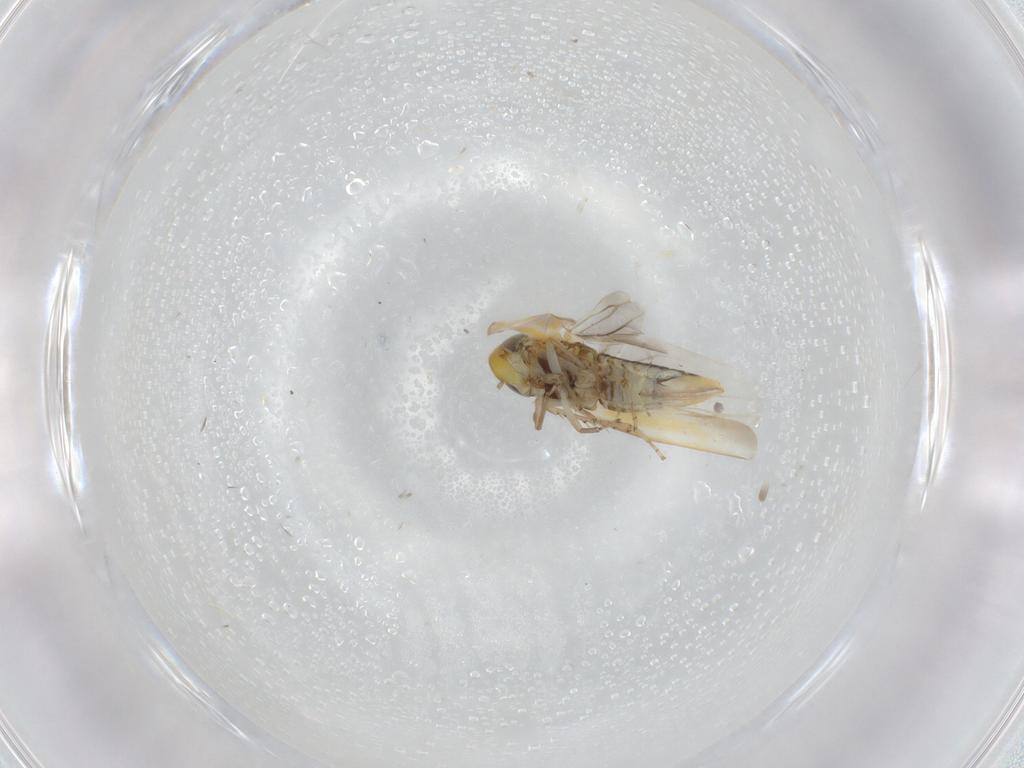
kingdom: Animalia
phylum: Arthropoda
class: Insecta
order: Hemiptera
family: Cicadellidae
